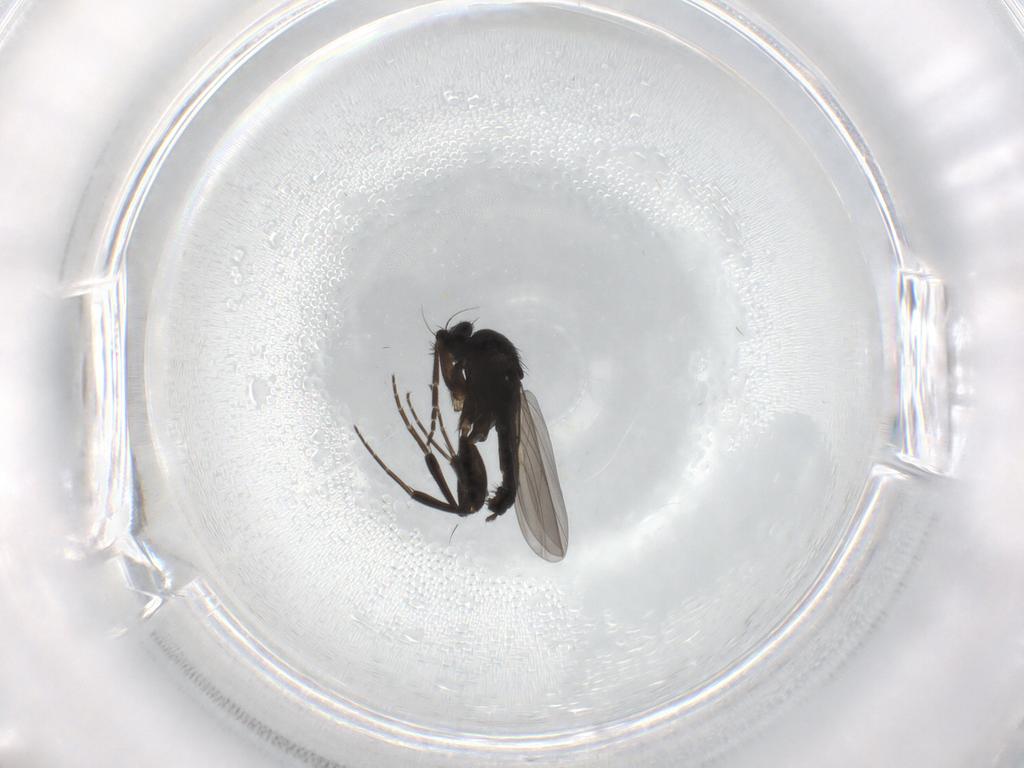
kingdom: Animalia
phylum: Arthropoda
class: Insecta
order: Diptera
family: Phoridae
